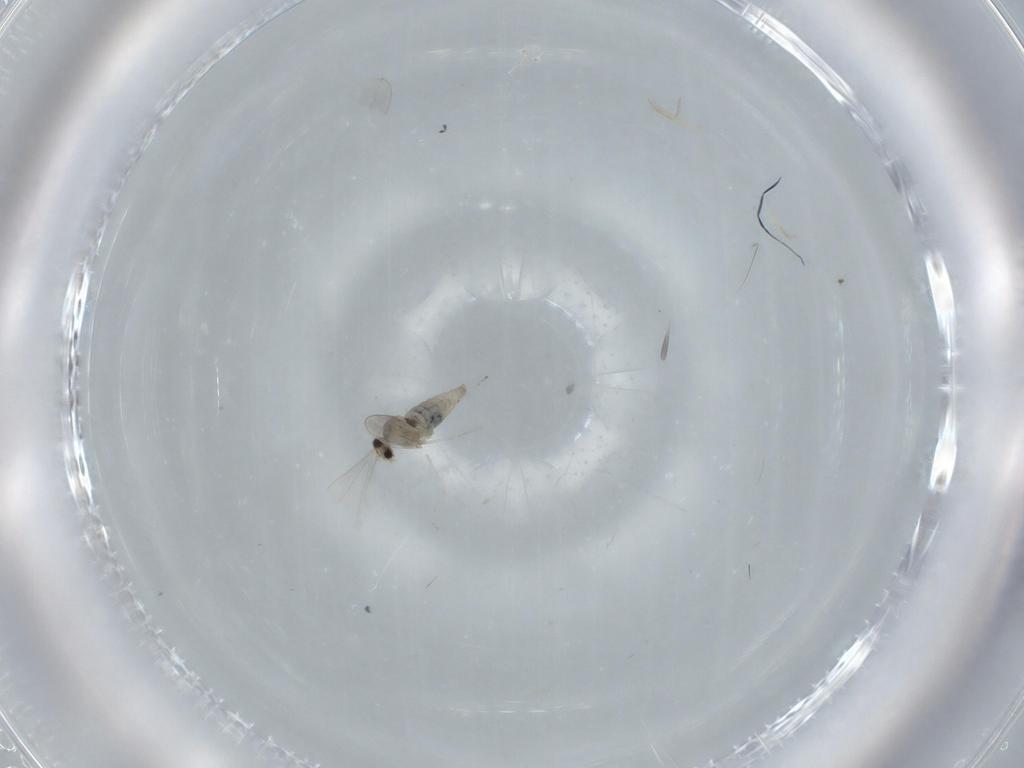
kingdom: Animalia
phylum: Arthropoda
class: Insecta
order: Diptera
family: Cecidomyiidae
